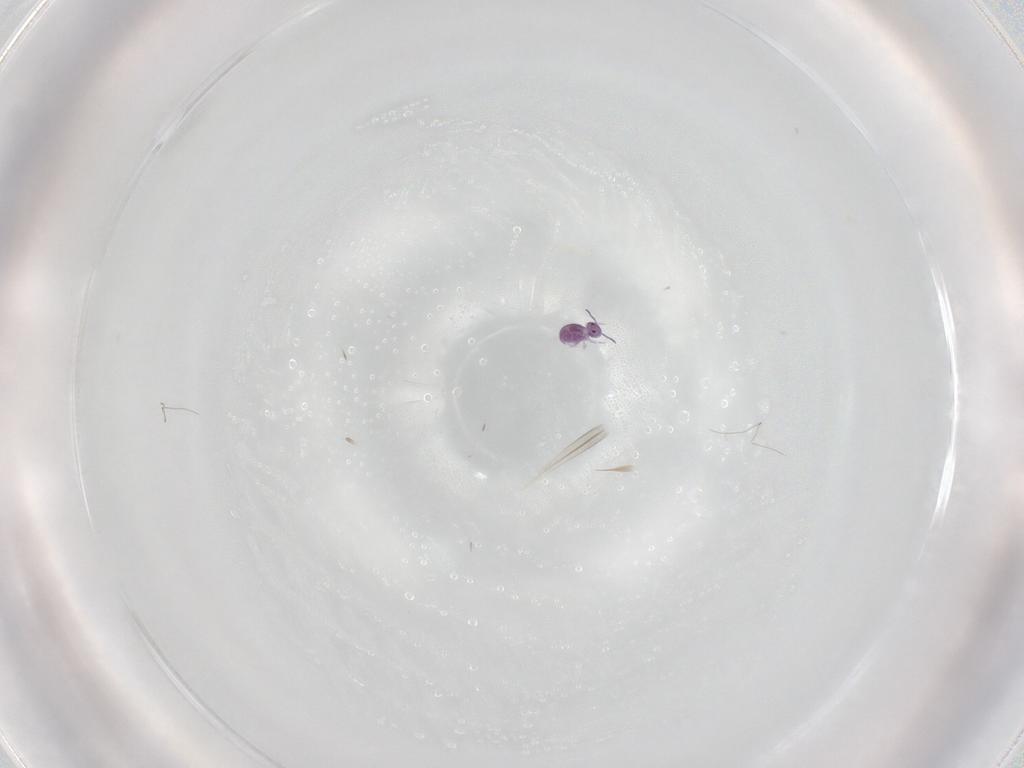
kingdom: Animalia
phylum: Arthropoda
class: Collembola
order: Symphypleona
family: Sminthurididae
